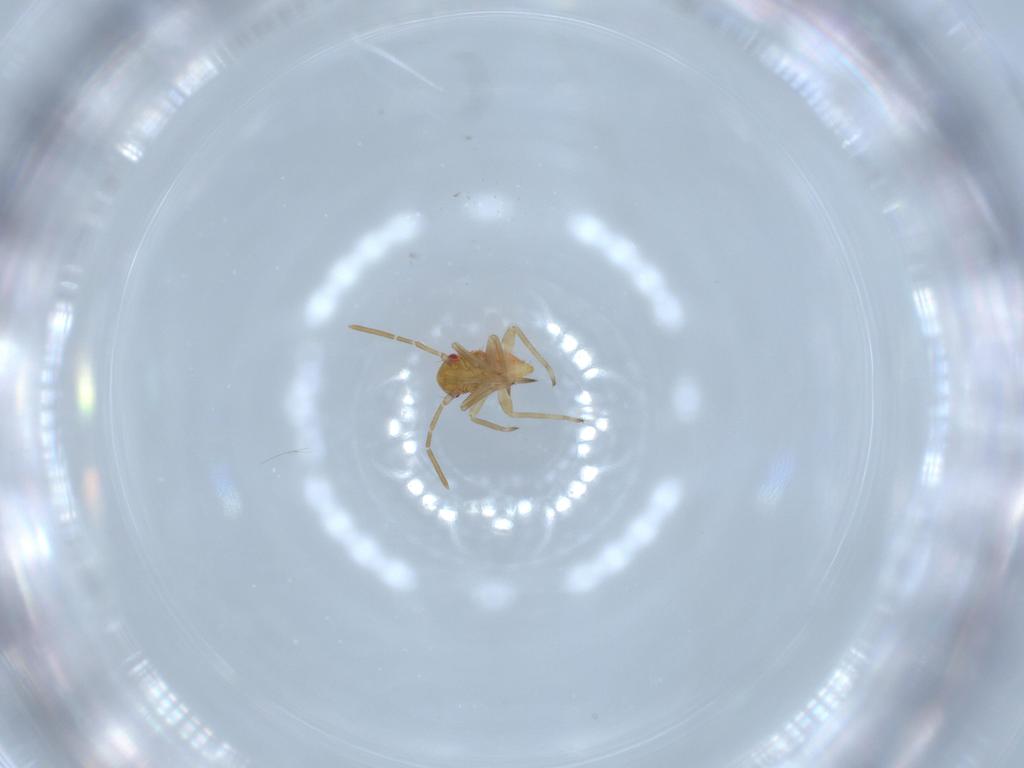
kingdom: Animalia
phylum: Arthropoda
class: Insecta
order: Hemiptera
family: Miridae
